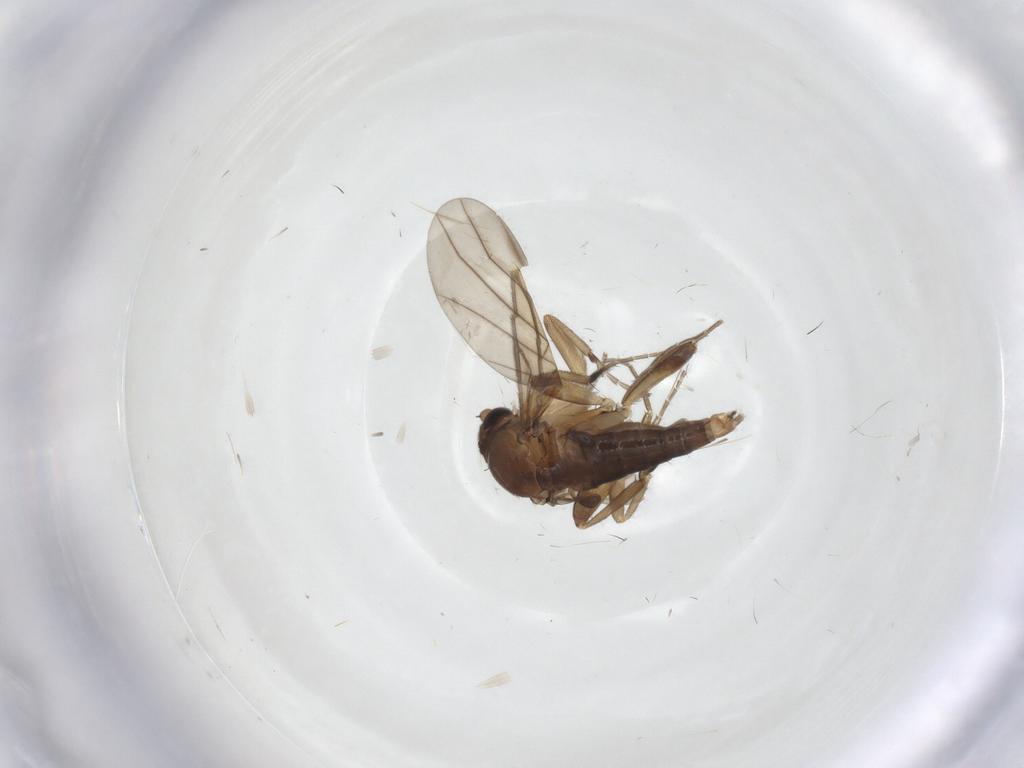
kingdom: Animalia
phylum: Arthropoda
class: Insecta
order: Diptera
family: Phoridae
